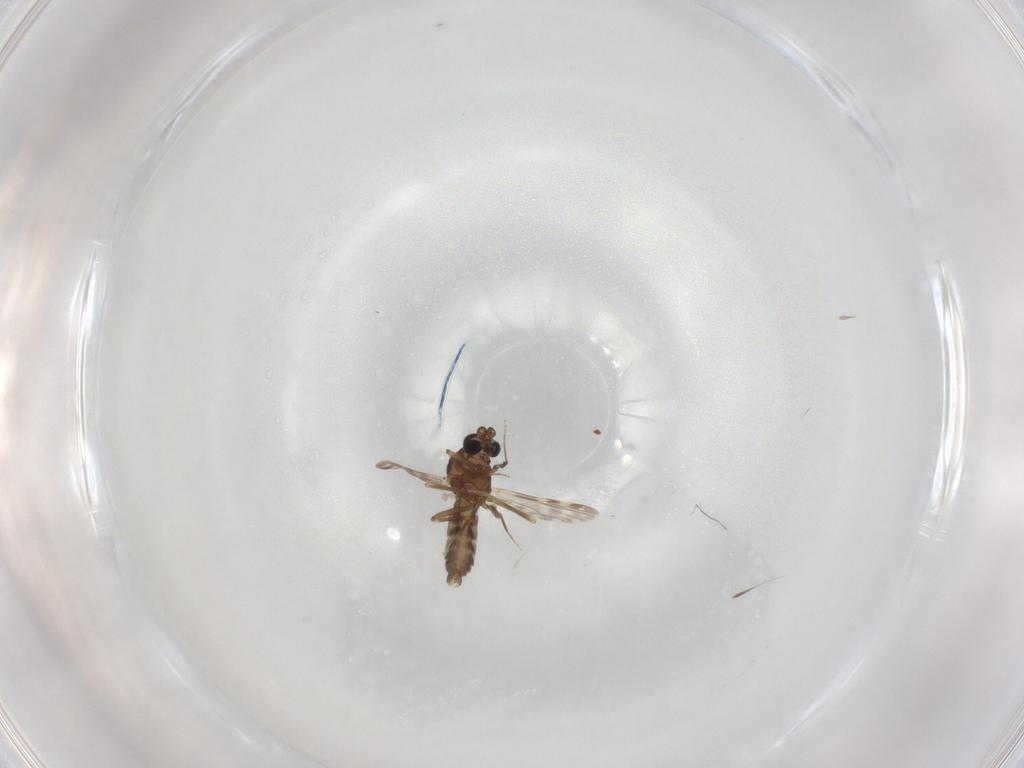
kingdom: Animalia
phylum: Arthropoda
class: Insecta
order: Diptera
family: Ceratopogonidae
